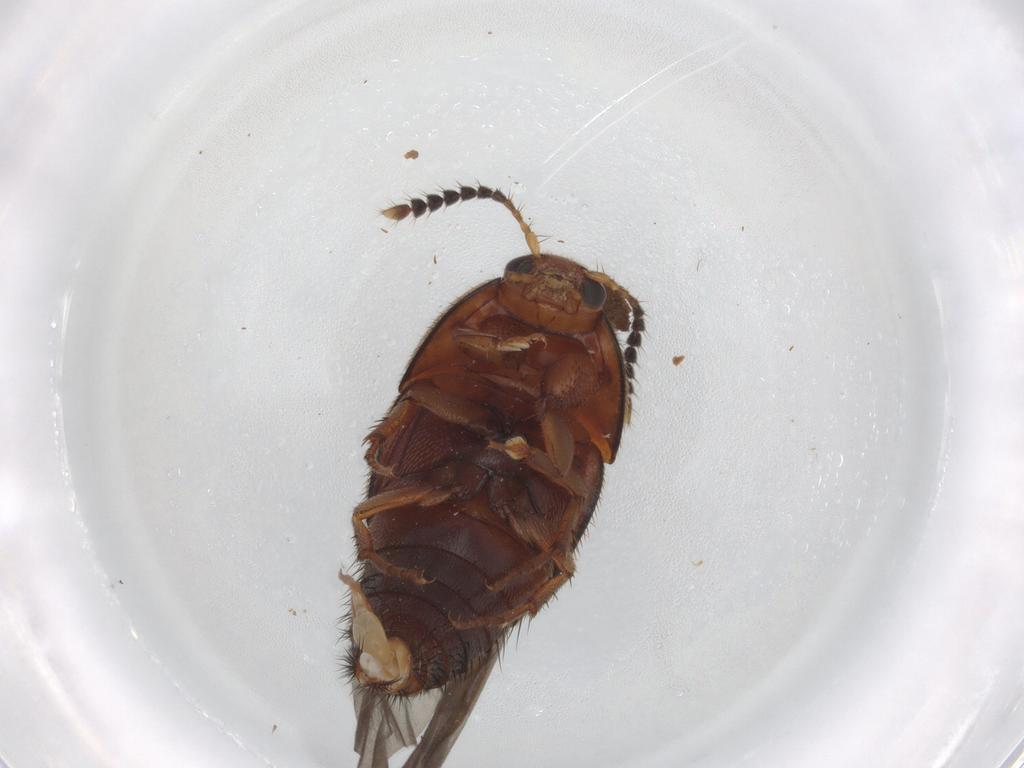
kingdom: Animalia
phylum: Arthropoda
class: Insecta
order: Coleoptera
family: Staphylinidae
